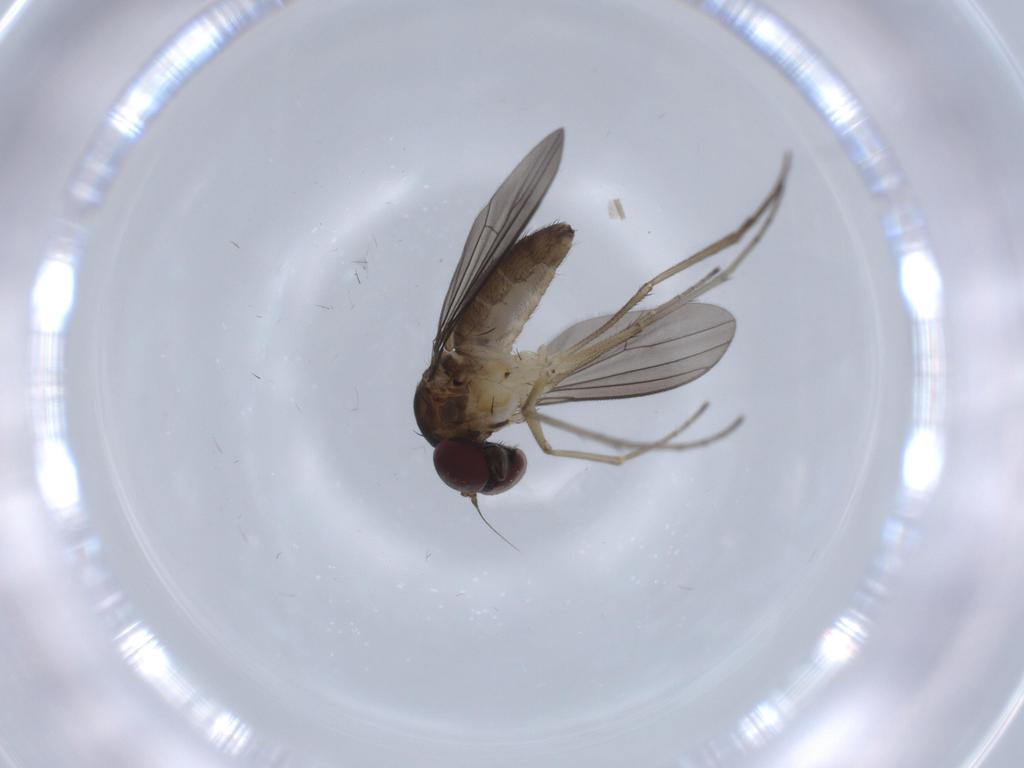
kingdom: Animalia
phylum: Arthropoda
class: Insecta
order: Diptera
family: Dolichopodidae
